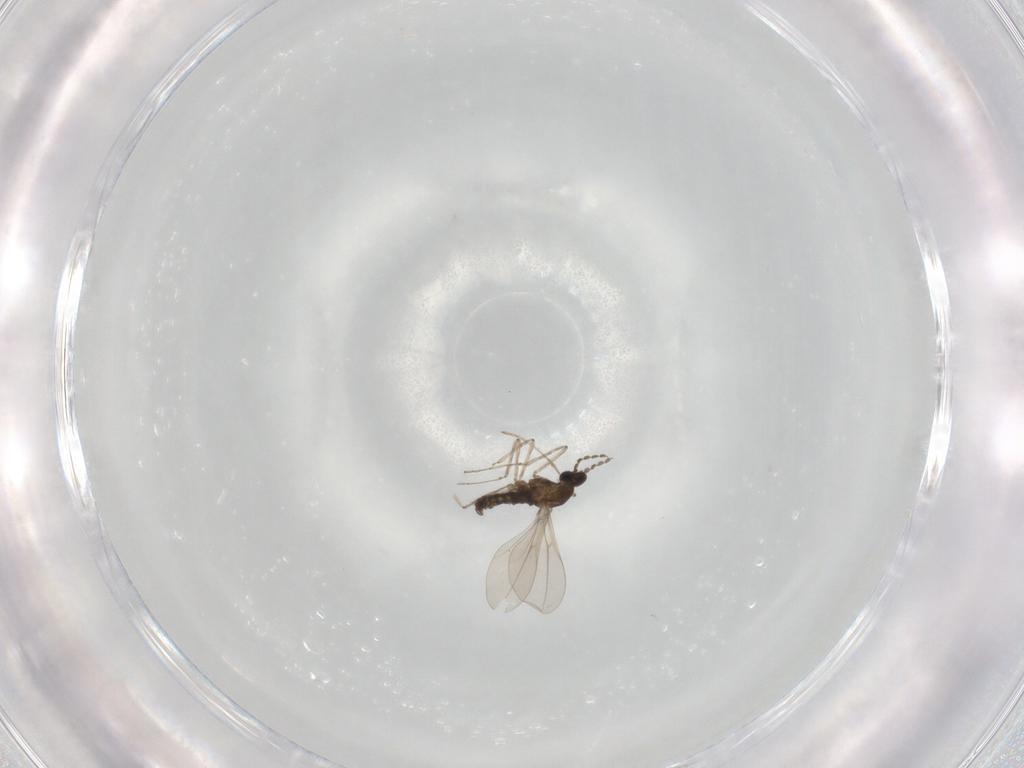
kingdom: Animalia
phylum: Arthropoda
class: Insecta
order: Diptera
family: Cecidomyiidae
